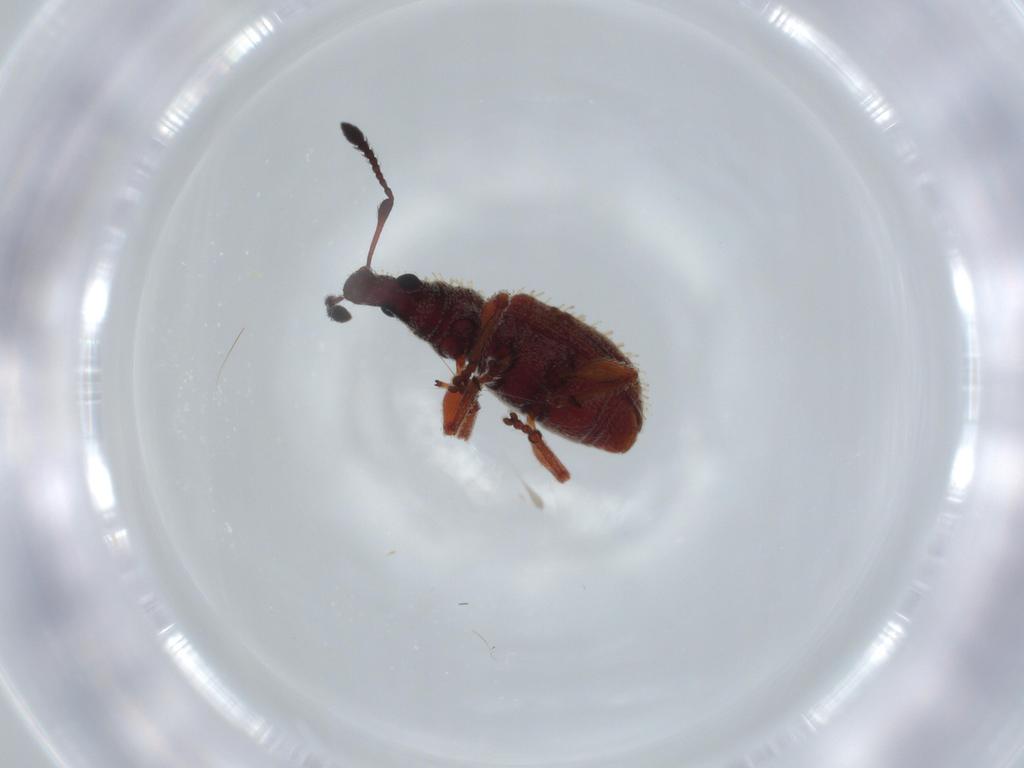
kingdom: Animalia
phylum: Arthropoda
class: Insecta
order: Coleoptera
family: Curculionidae
